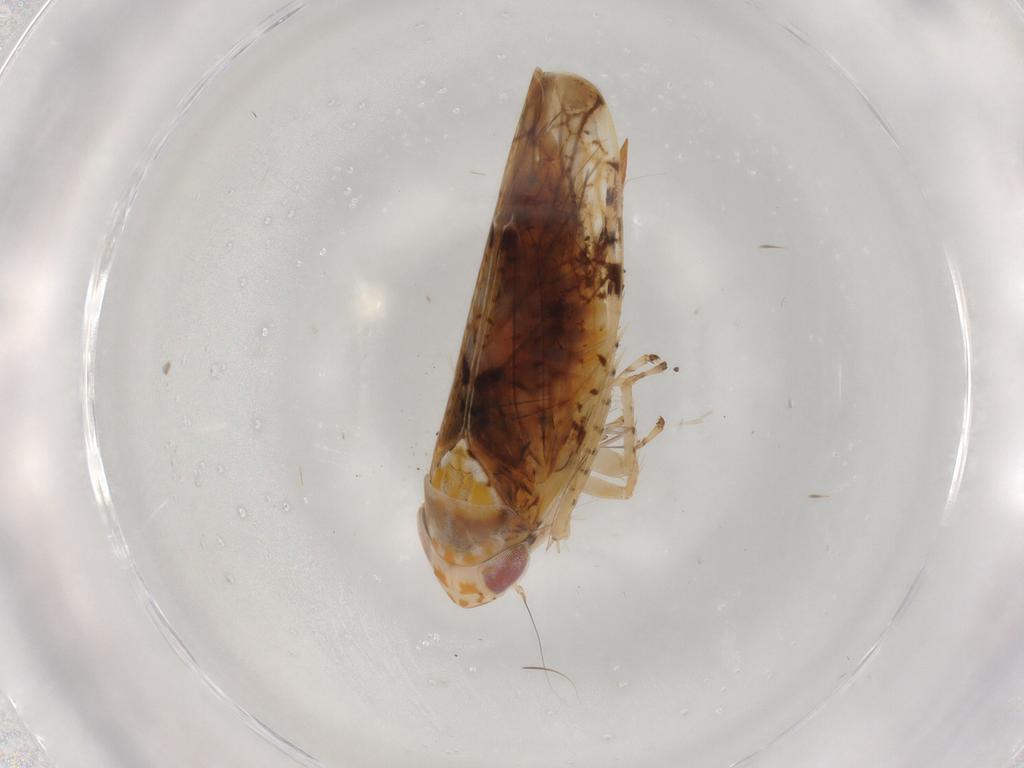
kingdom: Animalia
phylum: Arthropoda
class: Insecta
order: Hemiptera
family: Cicadellidae
